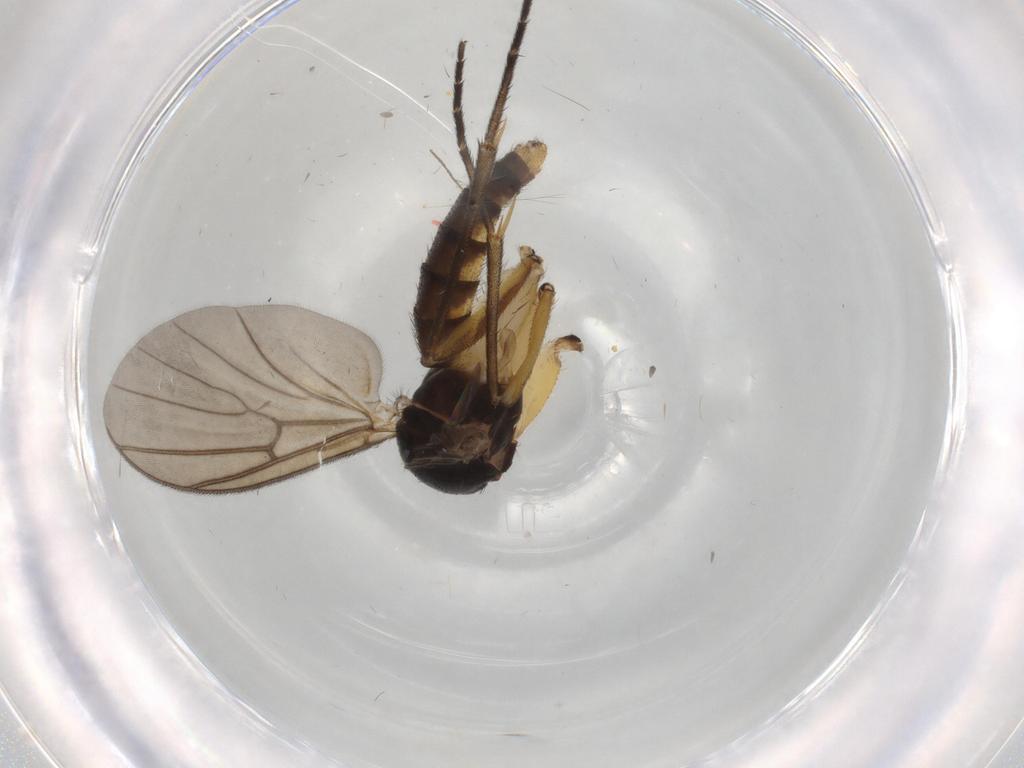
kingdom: Animalia
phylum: Arthropoda
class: Insecta
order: Diptera
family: Mycetophilidae
